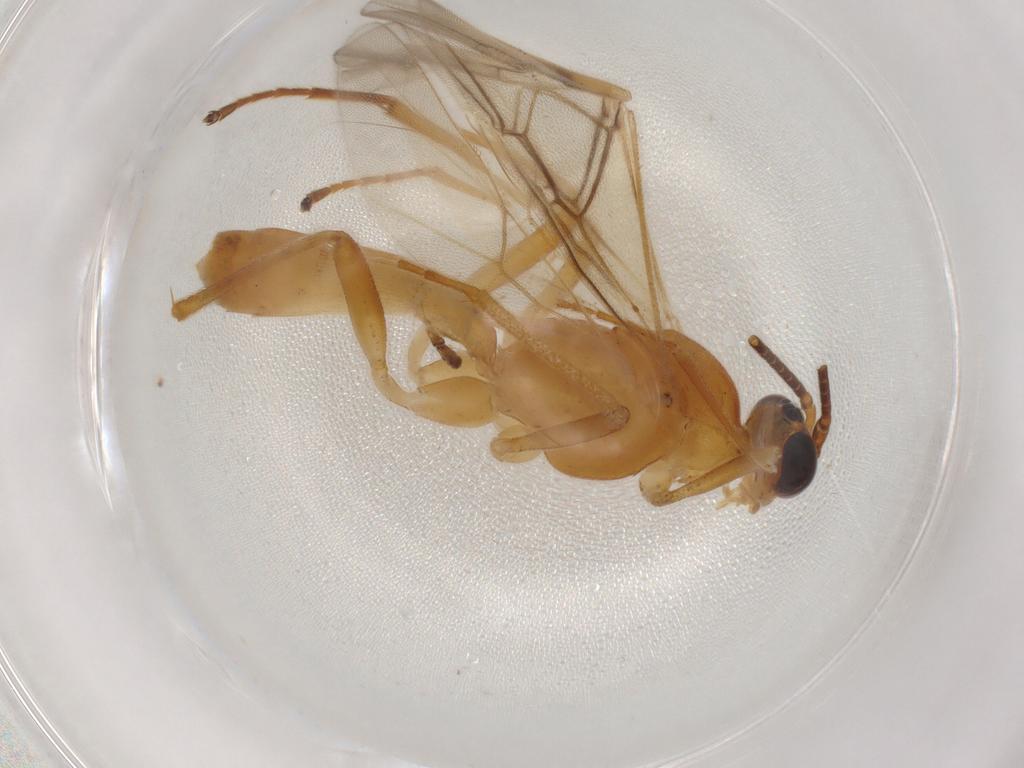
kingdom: Animalia
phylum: Arthropoda
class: Insecta
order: Hymenoptera
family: Braconidae
